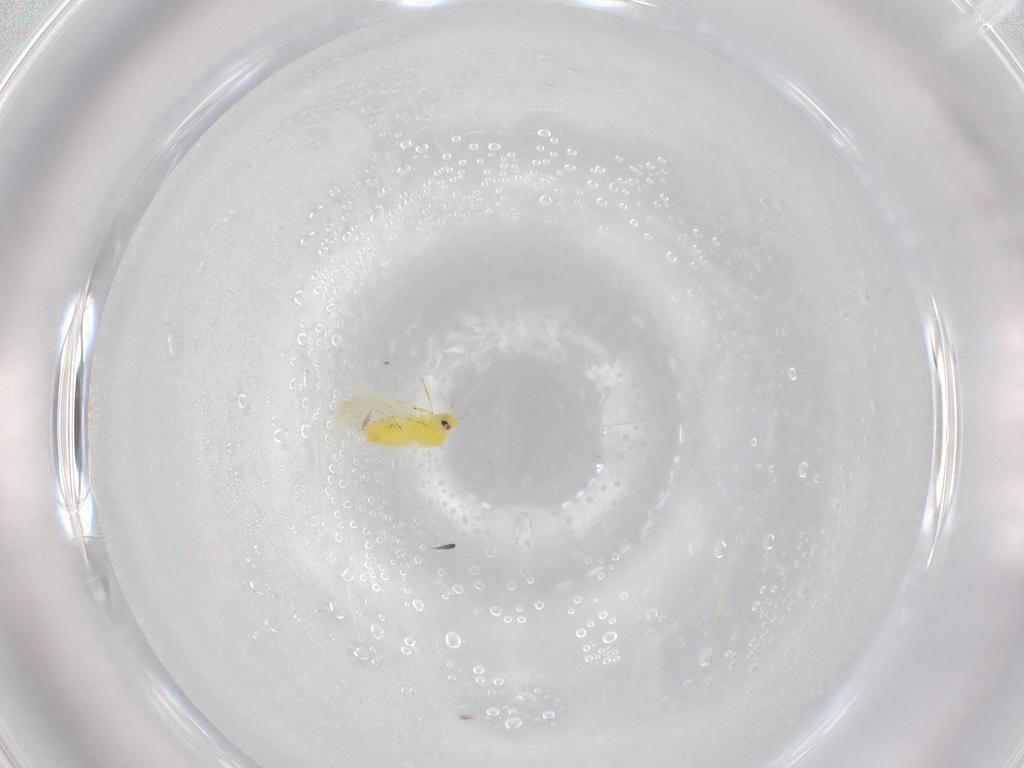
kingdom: Animalia
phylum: Arthropoda
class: Insecta
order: Hemiptera
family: Aleyrodidae
